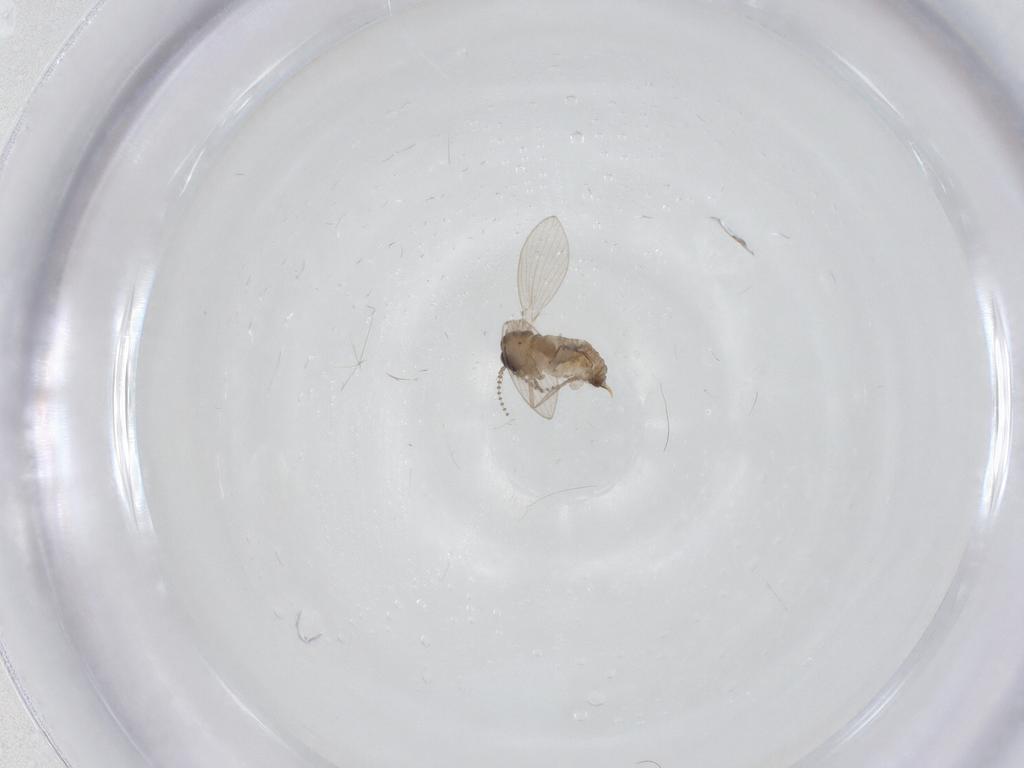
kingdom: Animalia
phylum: Arthropoda
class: Insecta
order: Diptera
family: Psychodidae
